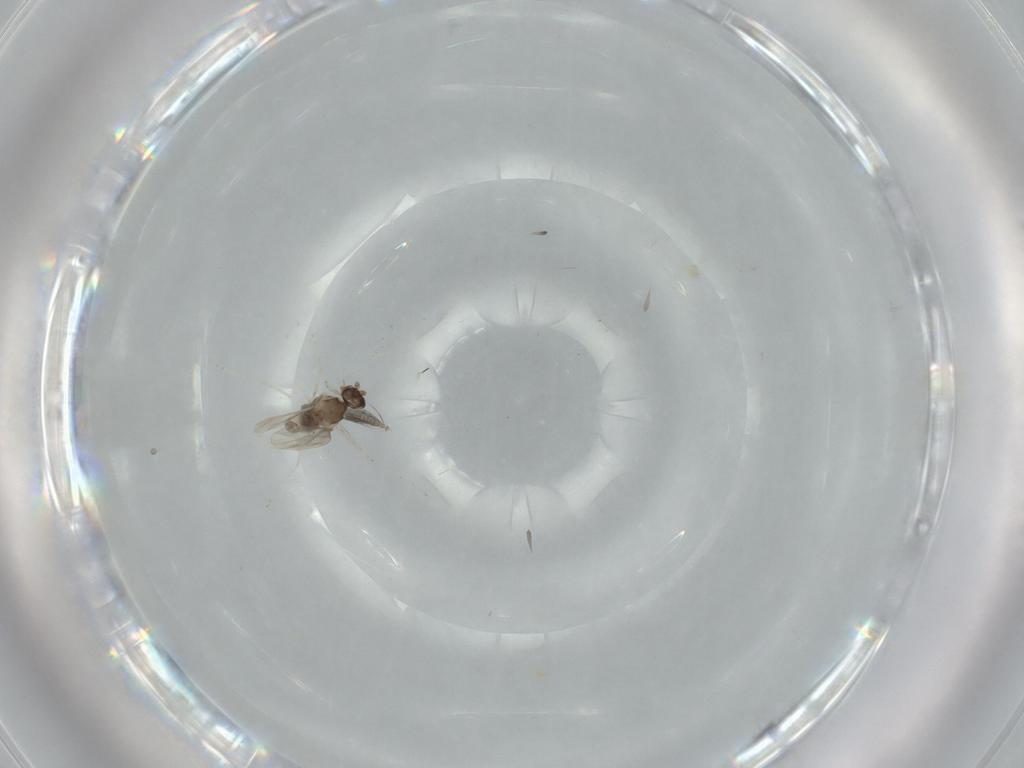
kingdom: Animalia
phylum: Arthropoda
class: Insecta
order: Diptera
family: Cecidomyiidae
